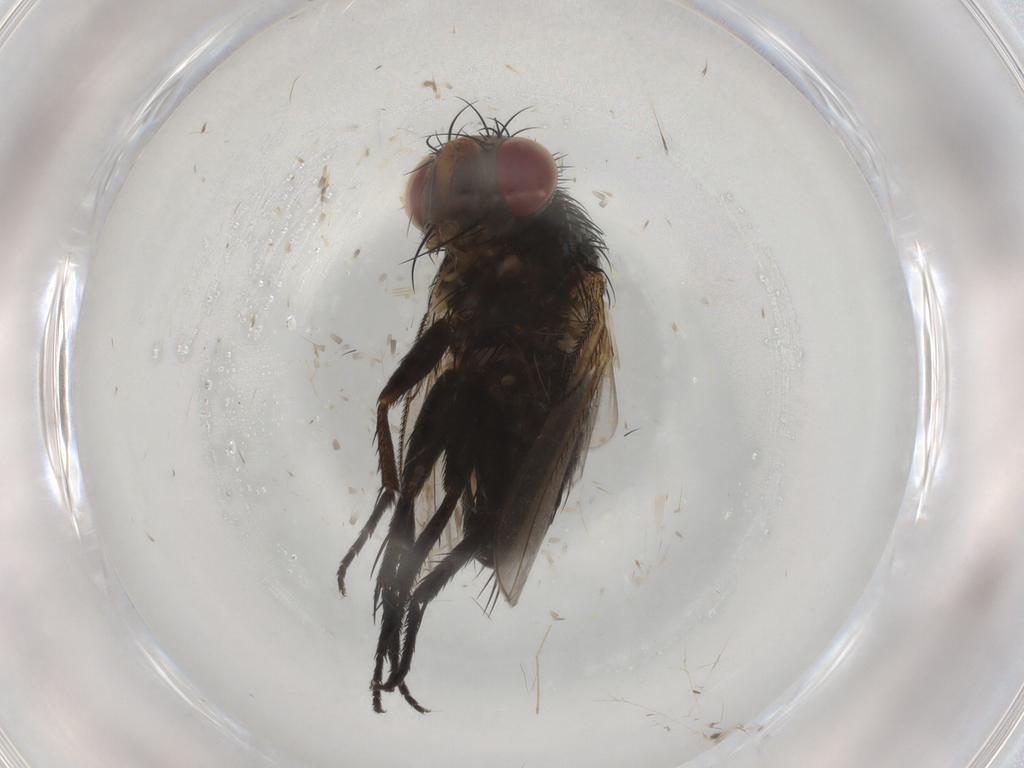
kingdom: Animalia
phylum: Arthropoda
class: Insecta
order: Diptera
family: Tachinidae
